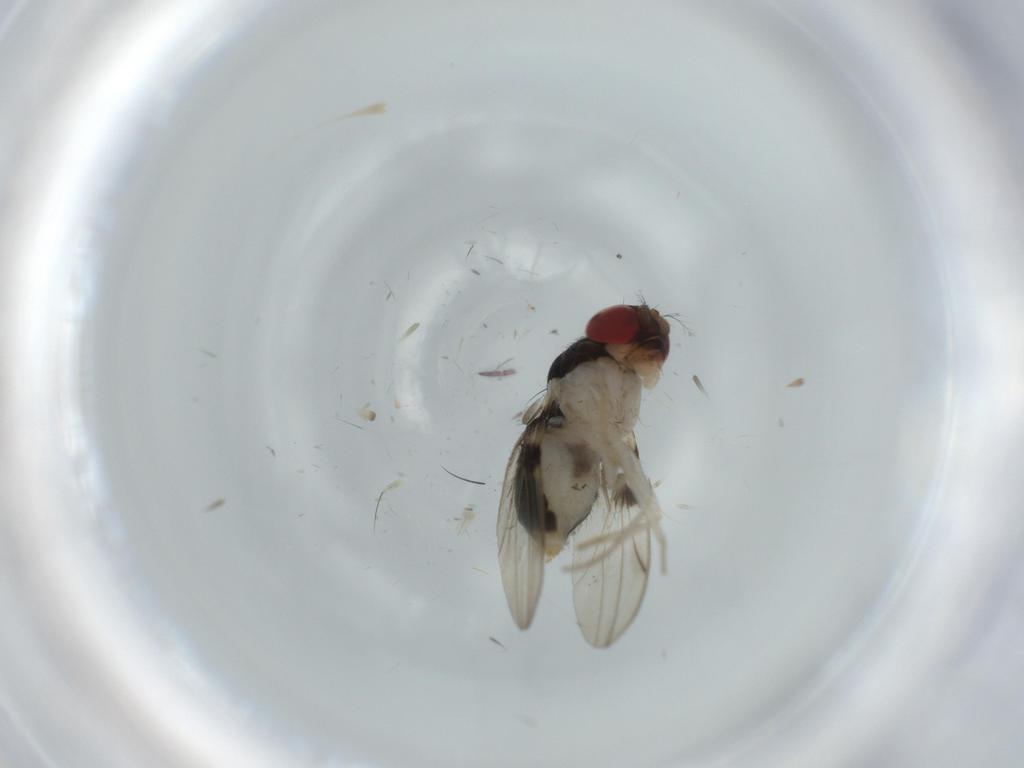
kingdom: Animalia
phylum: Arthropoda
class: Insecta
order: Diptera
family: Drosophilidae
